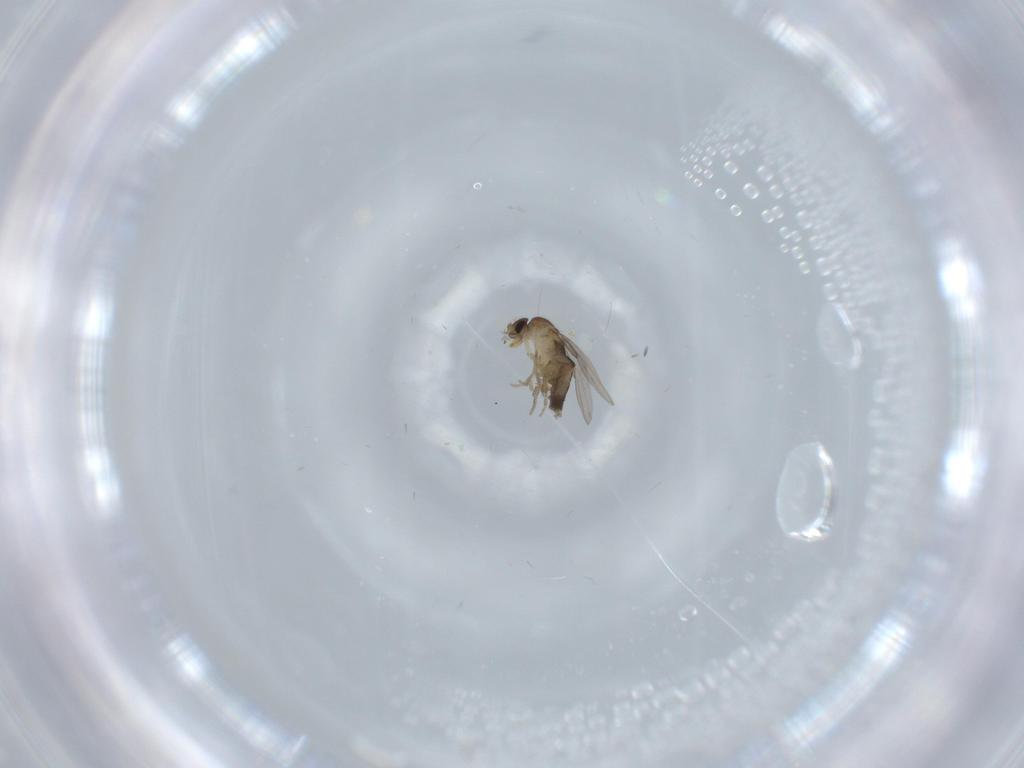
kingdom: Animalia
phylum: Arthropoda
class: Insecta
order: Diptera
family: Phoridae
